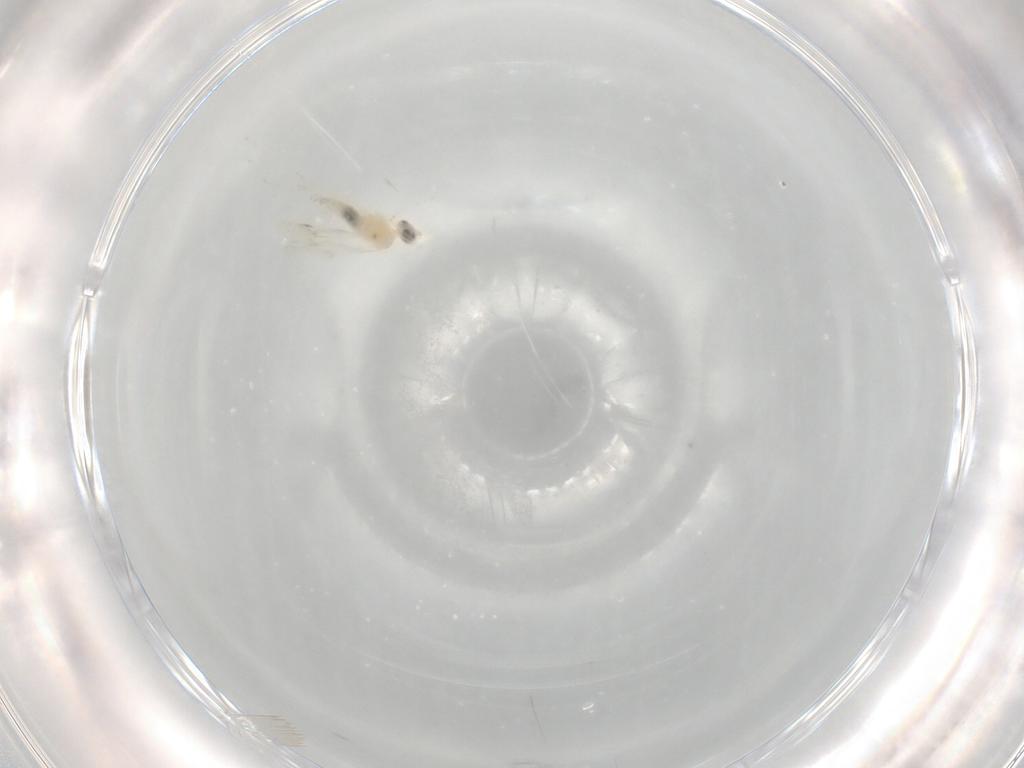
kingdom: Animalia
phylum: Arthropoda
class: Insecta
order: Diptera
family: Cecidomyiidae
